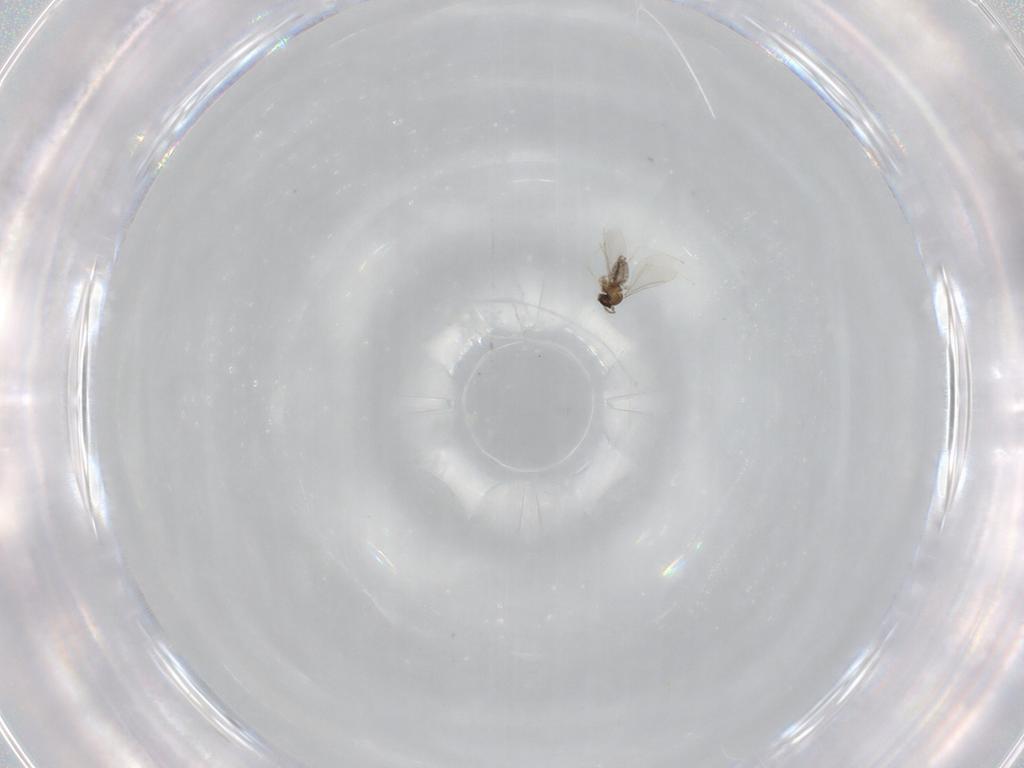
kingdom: Animalia
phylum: Arthropoda
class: Insecta
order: Diptera
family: Cecidomyiidae
